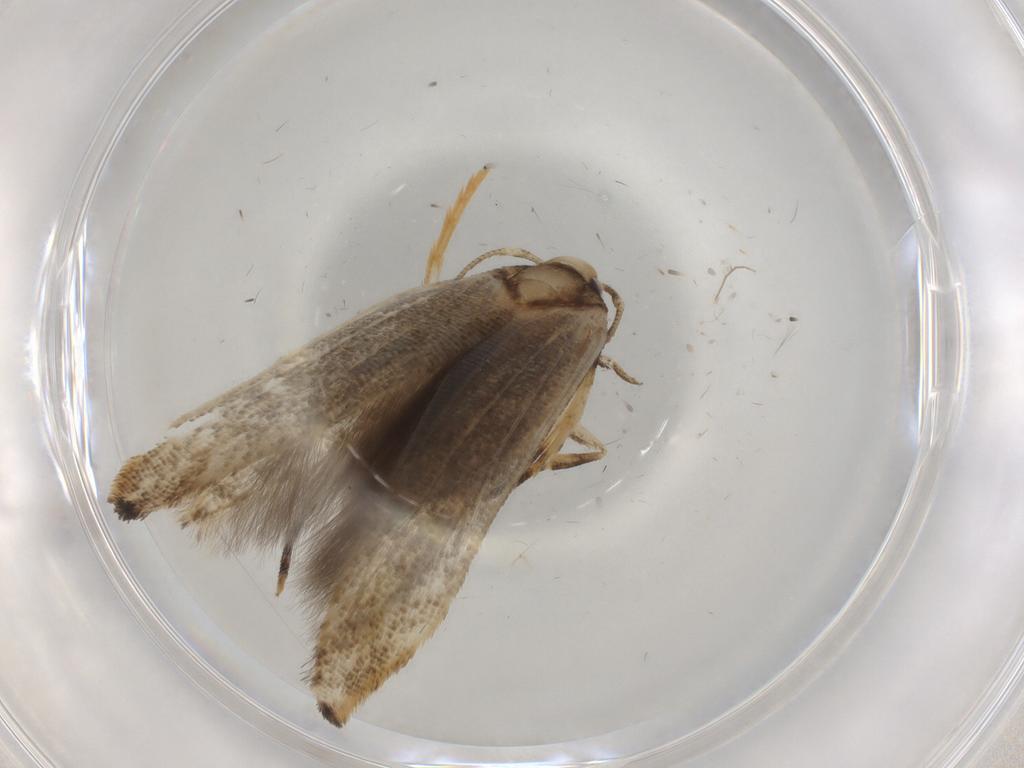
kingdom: Animalia
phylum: Arthropoda
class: Insecta
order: Lepidoptera
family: Cosmopterigidae
